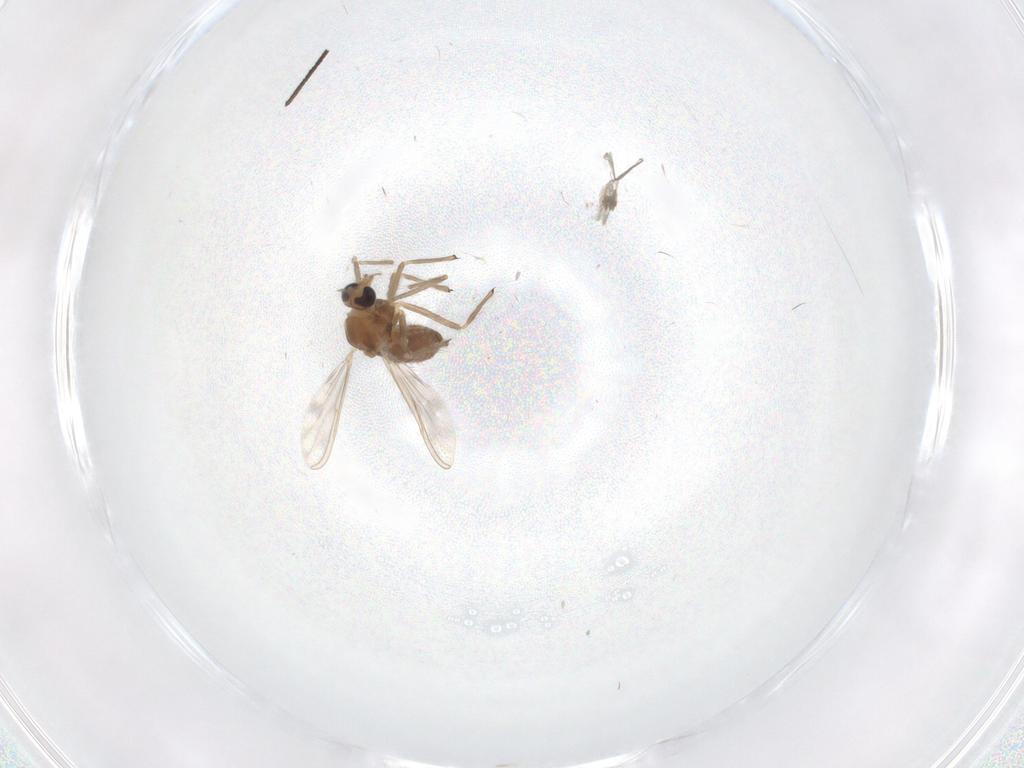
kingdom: Animalia
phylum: Arthropoda
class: Insecta
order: Diptera
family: Chironomidae
